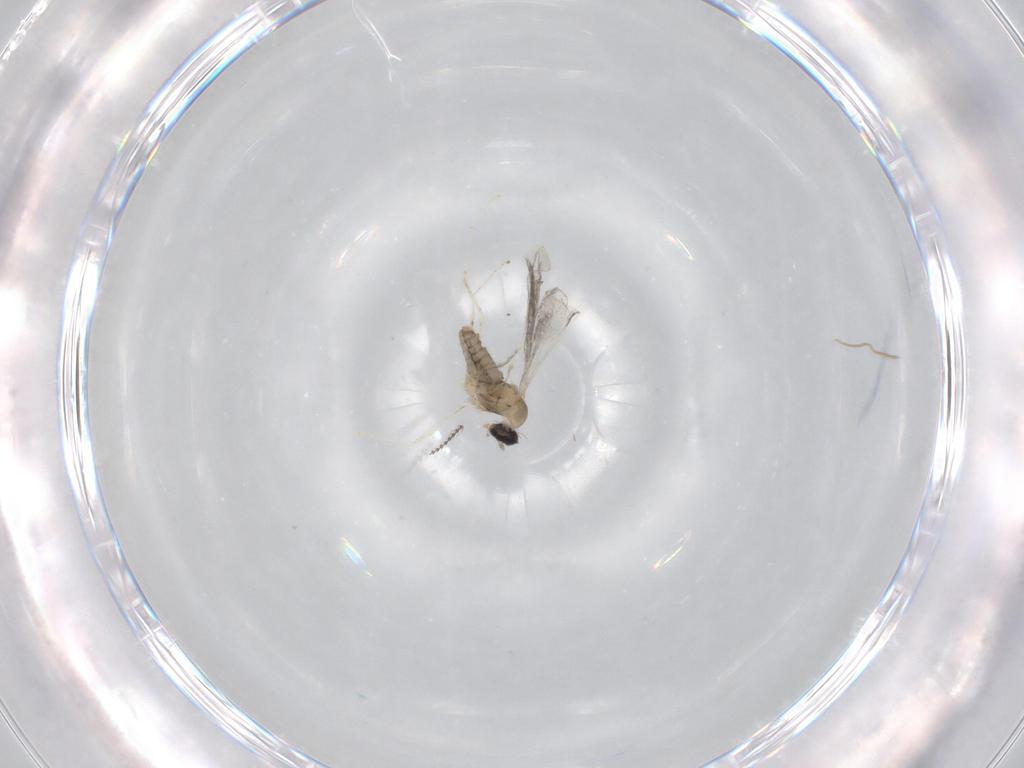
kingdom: Animalia
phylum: Arthropoda
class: Insecta
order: Diptera
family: Cecidomyiidae
